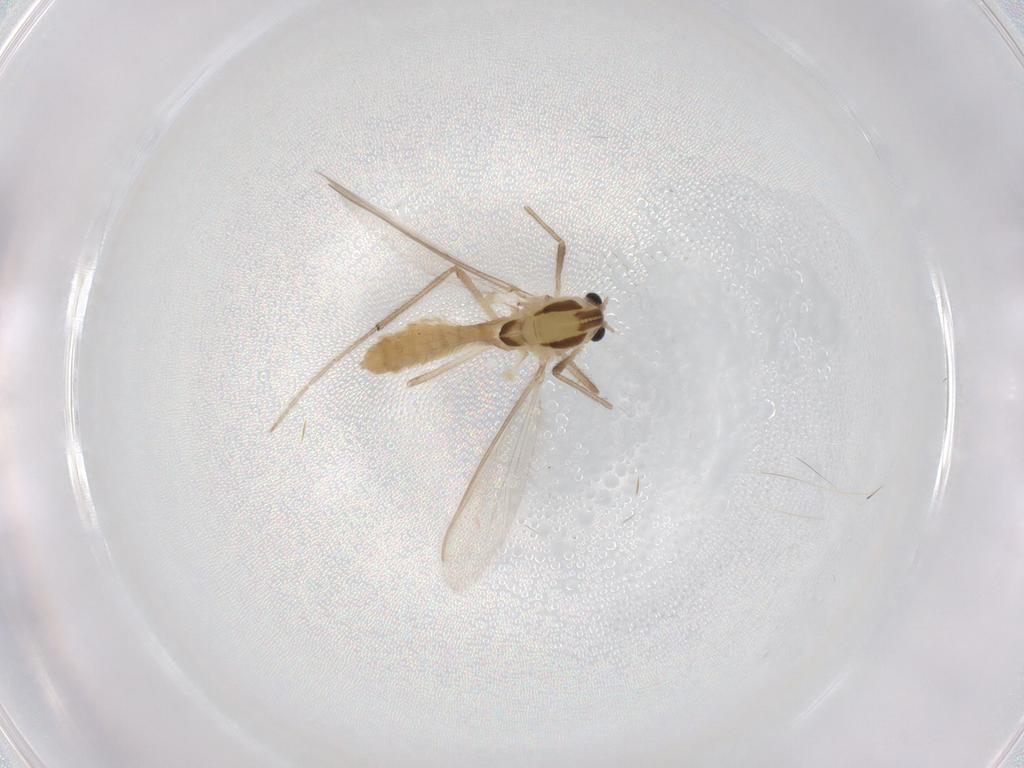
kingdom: Animalia
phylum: Arthropoda
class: Insecta
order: Diptera
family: Chironomidae
